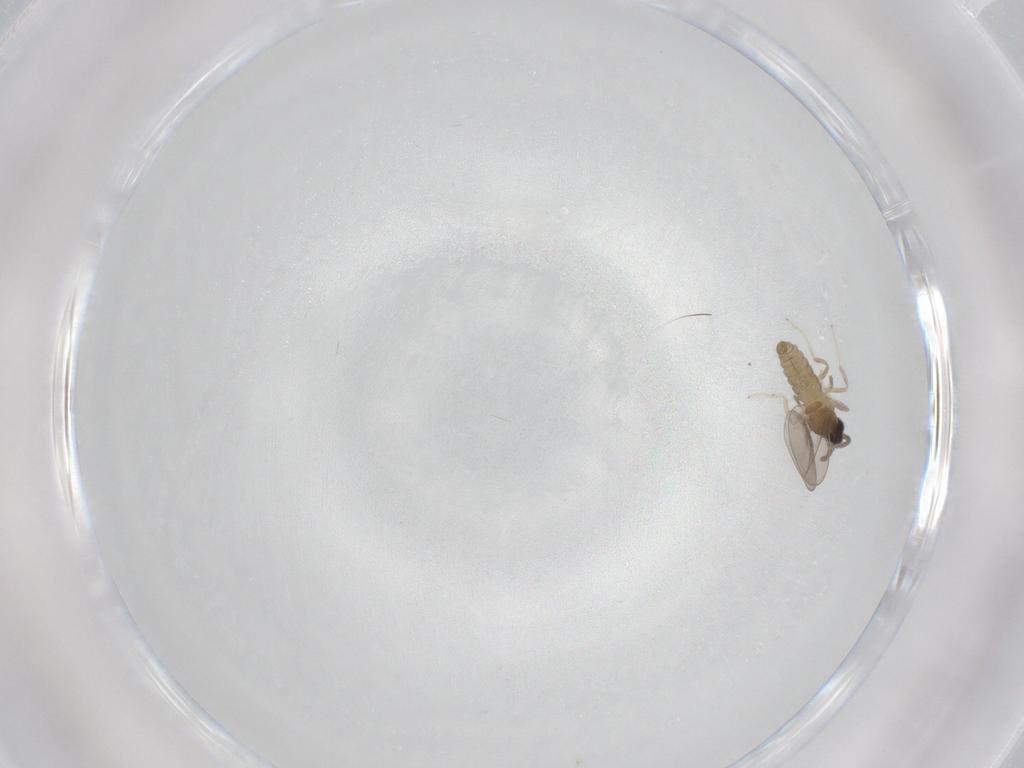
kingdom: Animalia
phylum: Arthropoda
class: Insecta
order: Diptera
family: Cecidomyiidae
